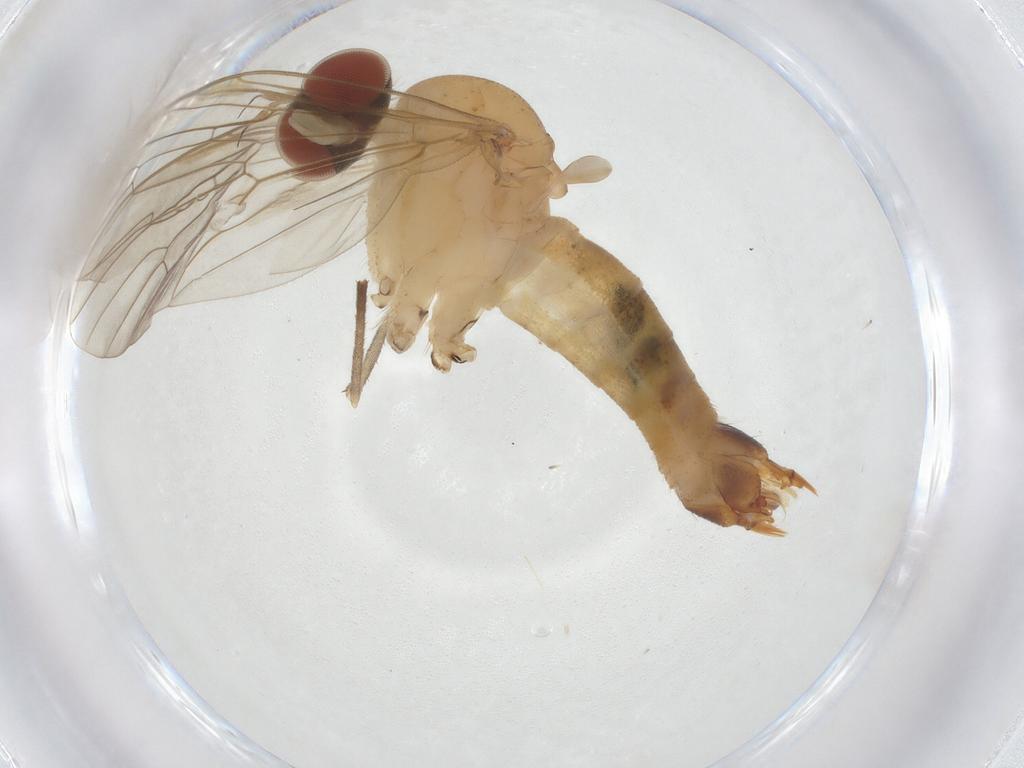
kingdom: Animalia
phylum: Arthropoda
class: Insecta
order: Diptera
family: Apsilocephalidae
